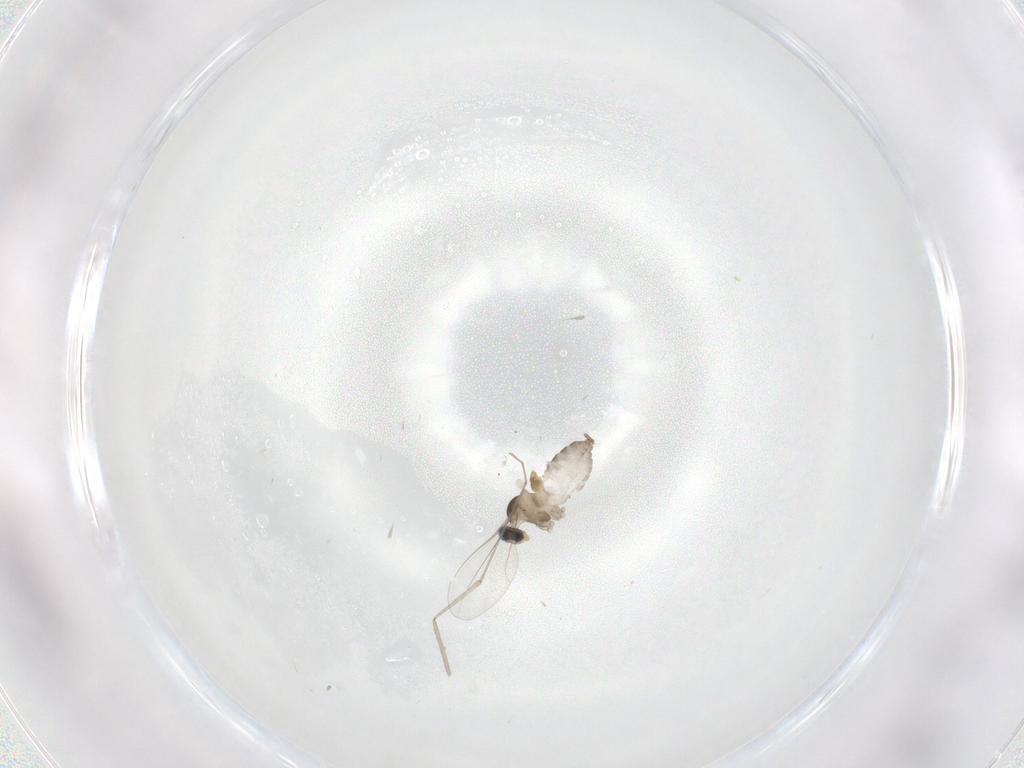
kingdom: Animalia
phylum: Arthropoda
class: Insecta
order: Diptera
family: Cecidomyiidae
